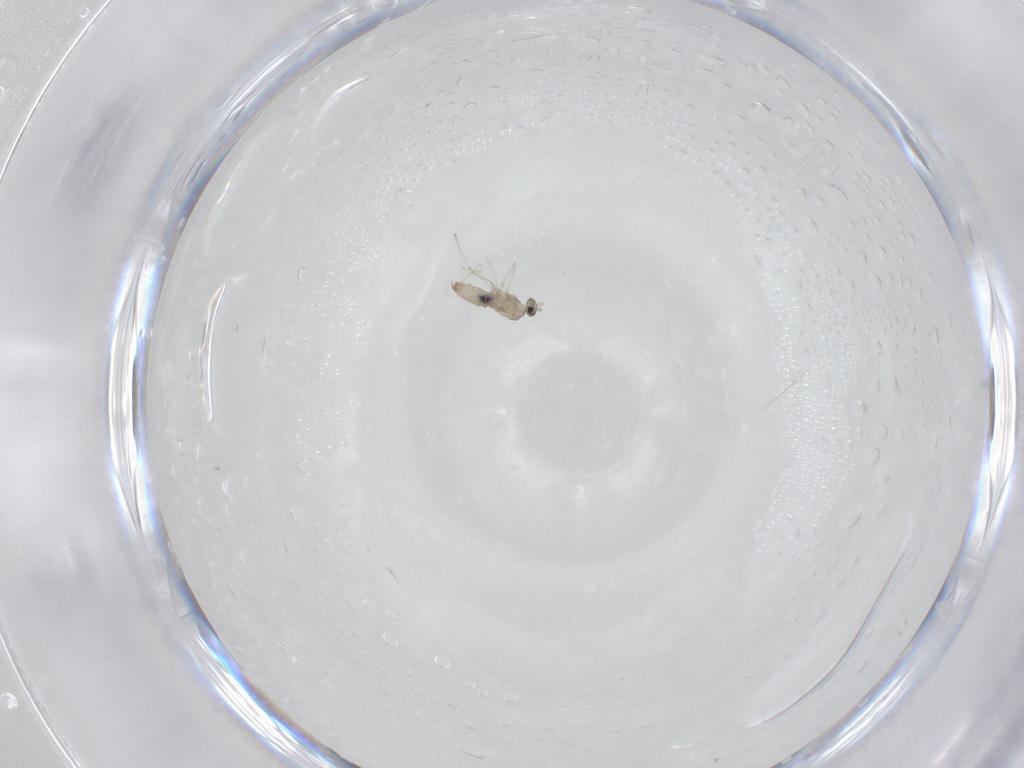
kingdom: Animalia
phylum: Arthropoda
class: Insecta
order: Diptera
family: Cecidomyiidae
